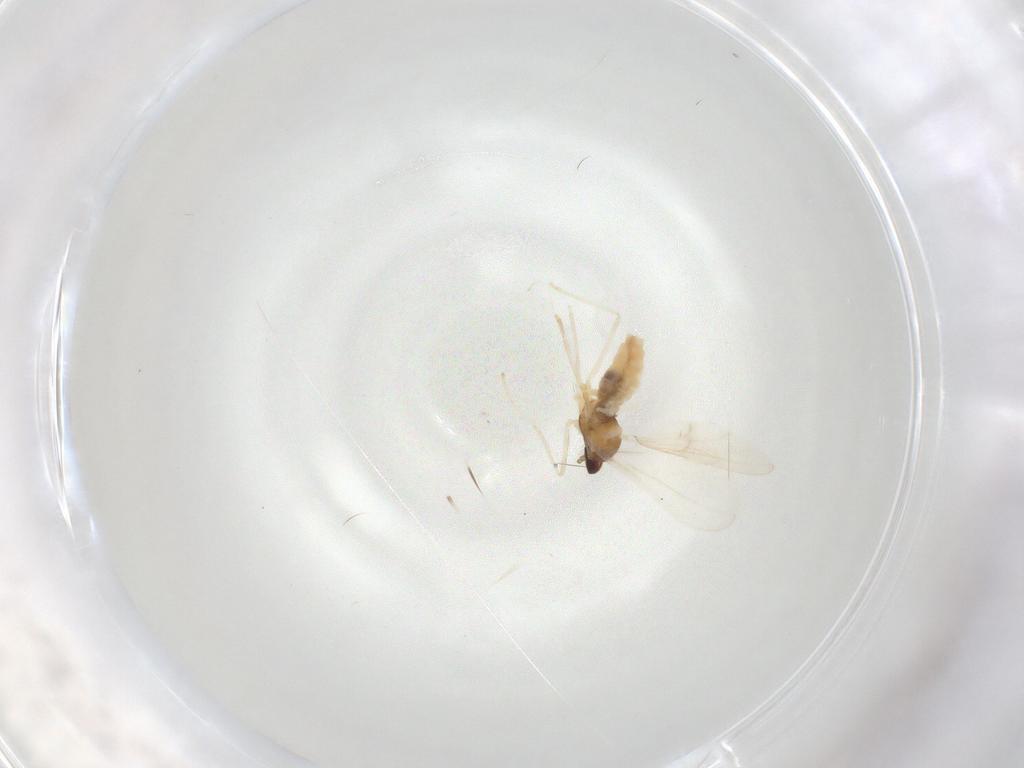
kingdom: Animalia
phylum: Arthropoda
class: Insecta
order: Diptera
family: Cecidomyiidae
